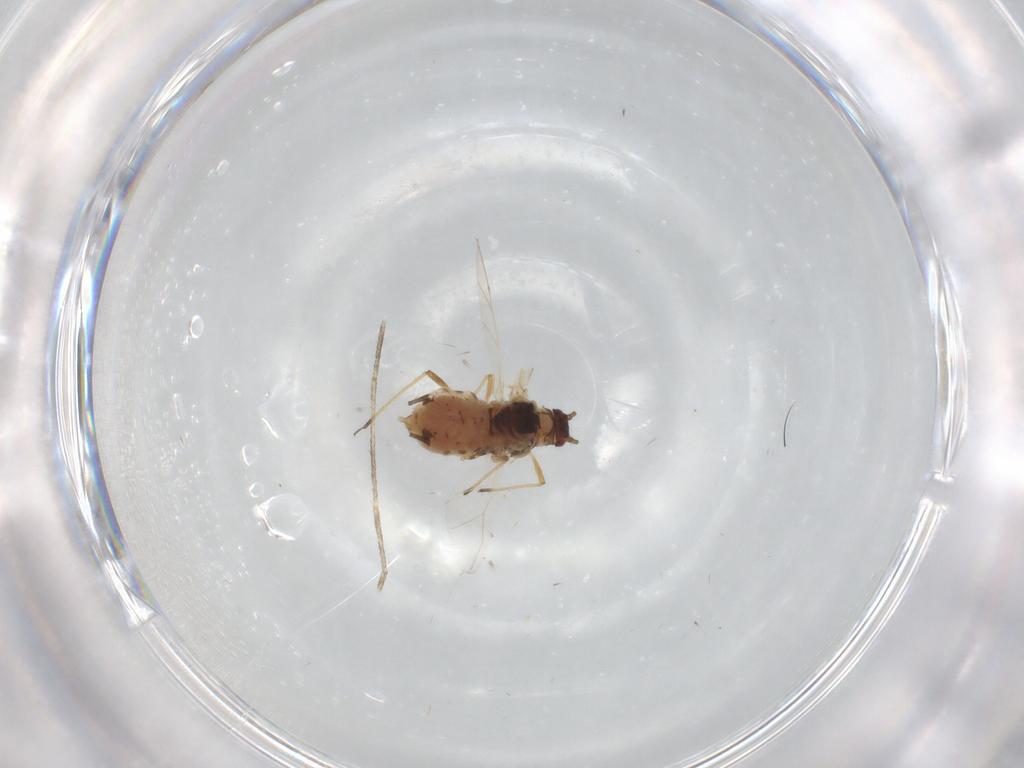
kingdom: Animalia
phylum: Arthropoda
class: Insecta
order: Hemiptera
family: Aphididae
